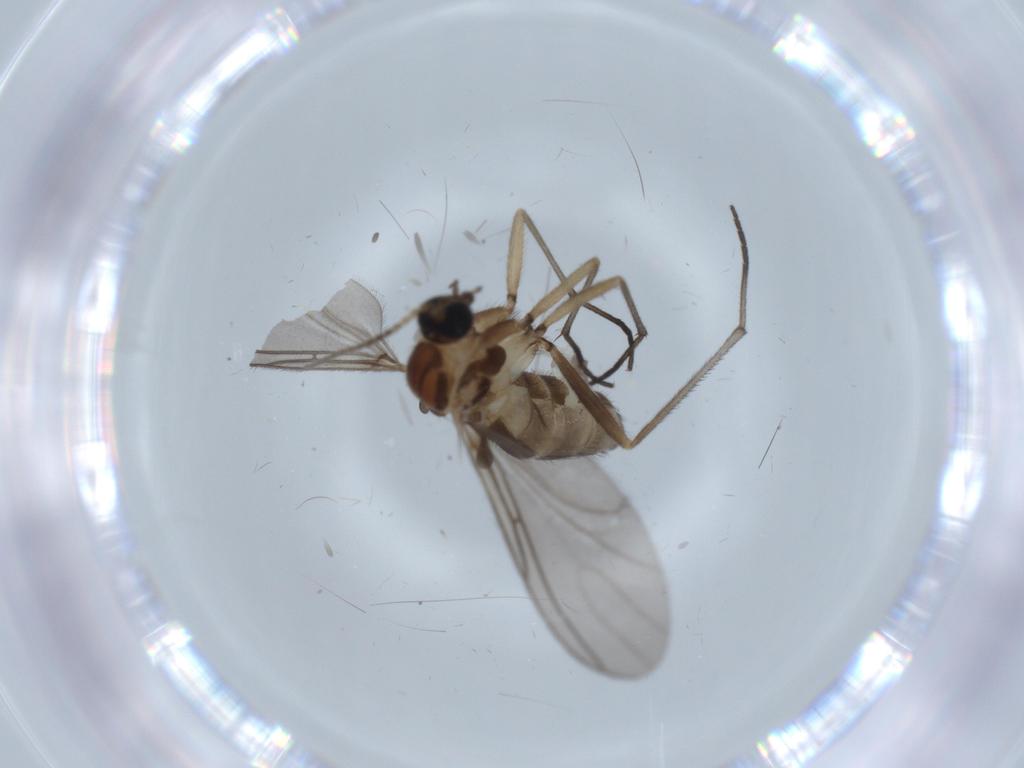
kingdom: Animalia
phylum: Arthropoda
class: Insecta
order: Diptera
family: Sciaridae
